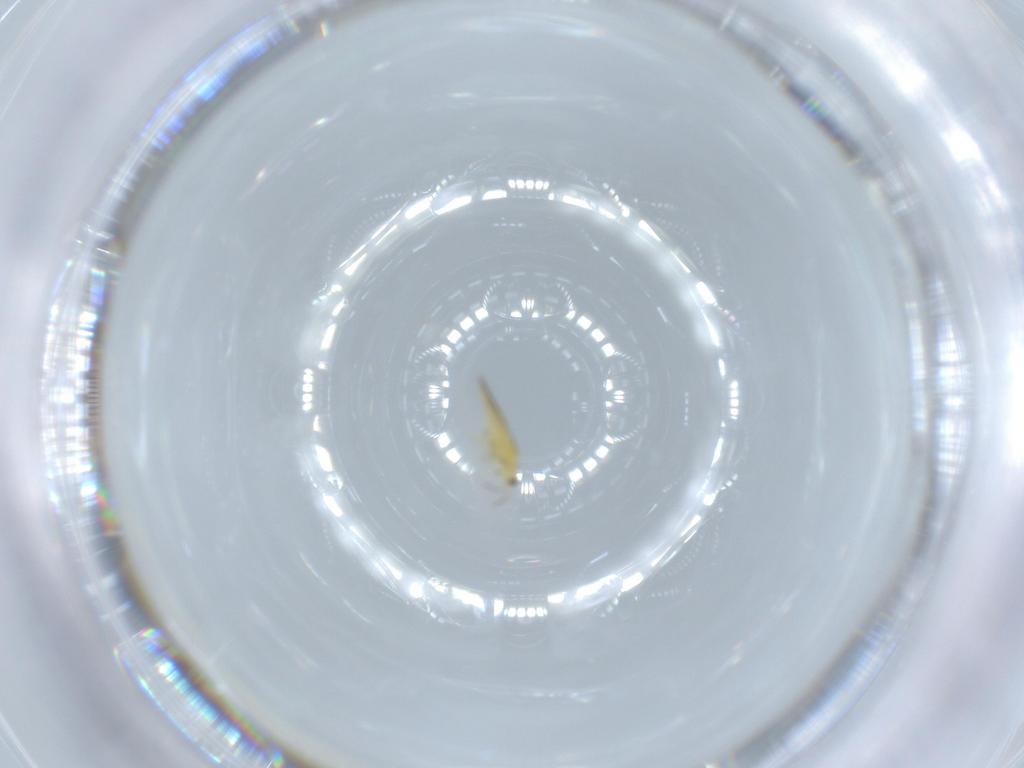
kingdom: Animalia
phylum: Arthropoda
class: Insecta
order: Thysanoptera
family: Thripidae
